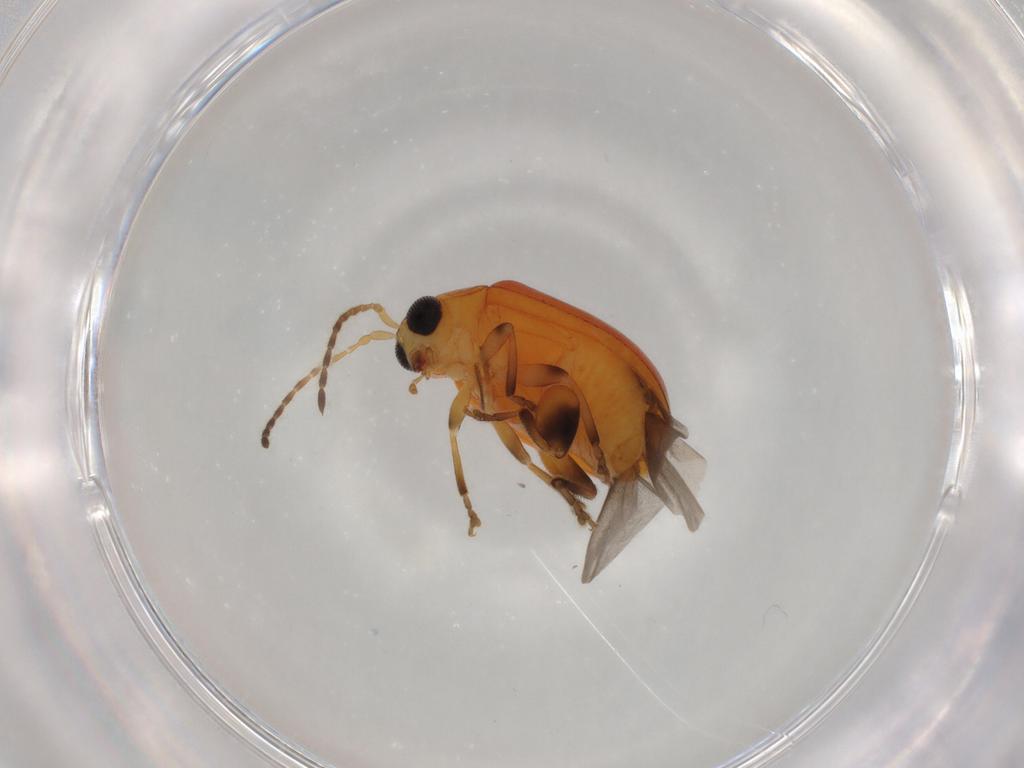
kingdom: Animalia
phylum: Arthropoda
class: Insecta
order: Coleoptera
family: Chrysomelidae
